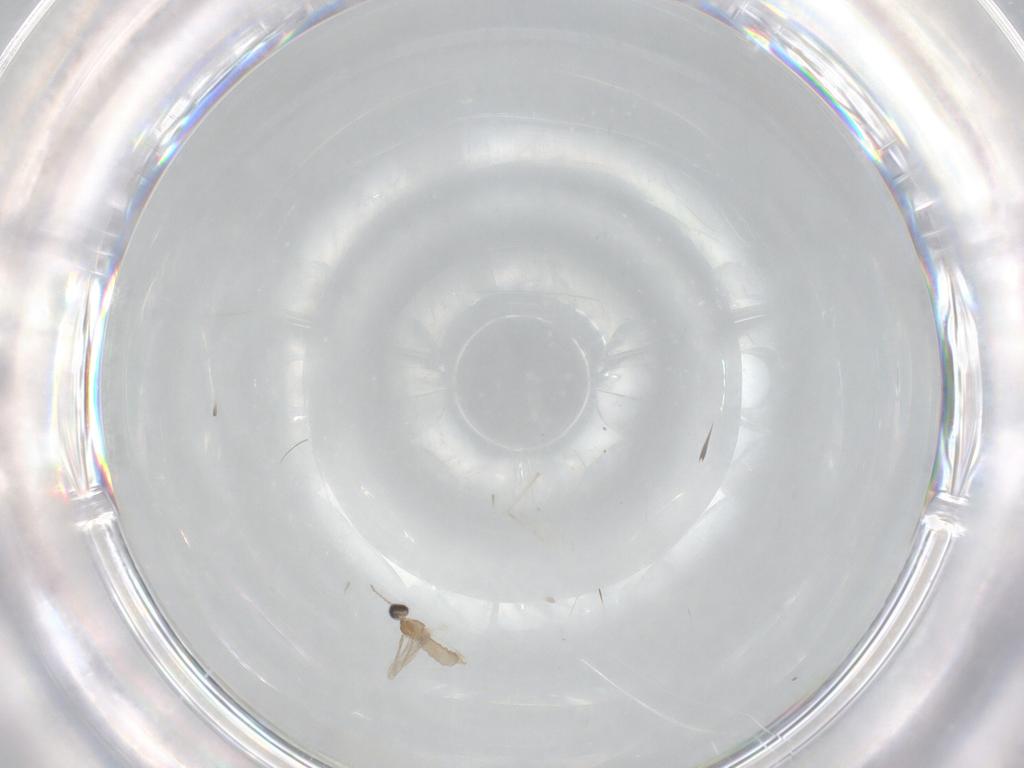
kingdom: Animalia
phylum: Arthropoda
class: Insecta
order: Diptera
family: Cecidomyiidae
